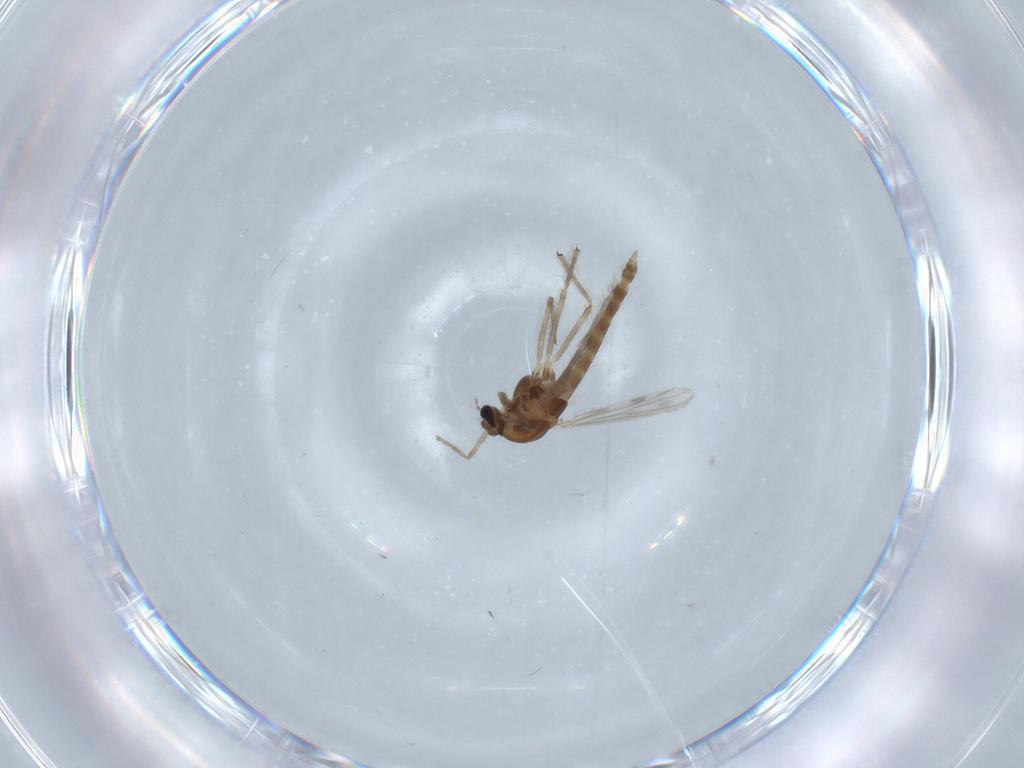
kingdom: Animalia
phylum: Arthropoda
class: Insecta
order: Diptera
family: Chironomidae
